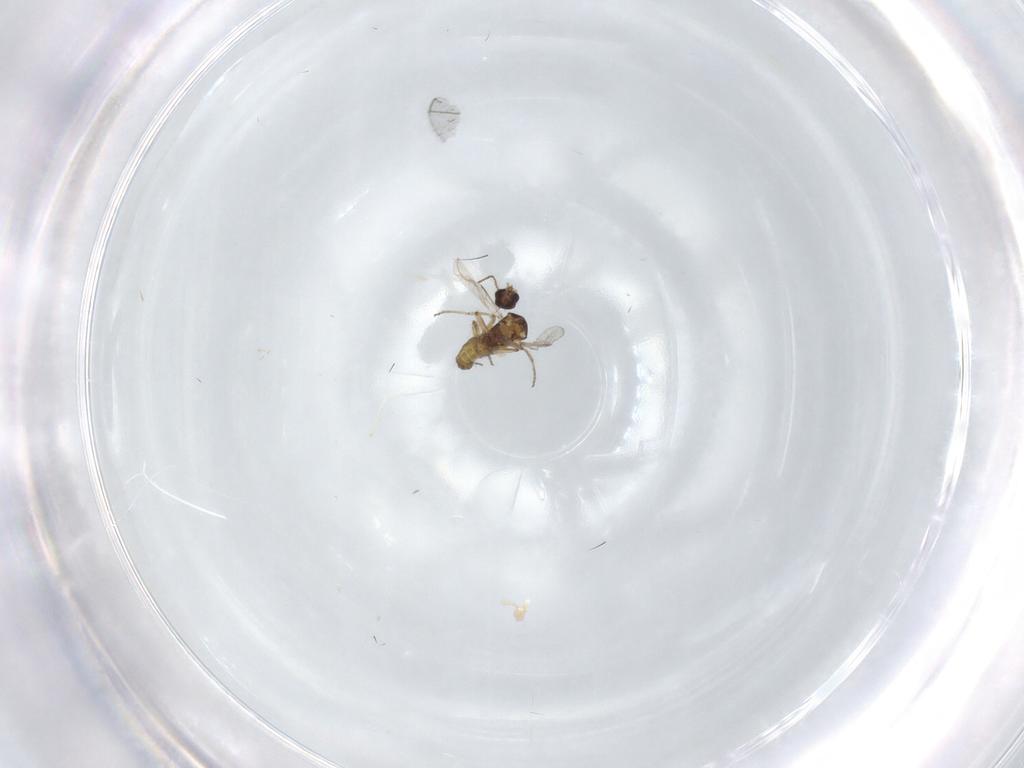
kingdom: Animalia
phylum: Arthropoda
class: Insecta
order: Diptera
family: Ceratopogonidae
